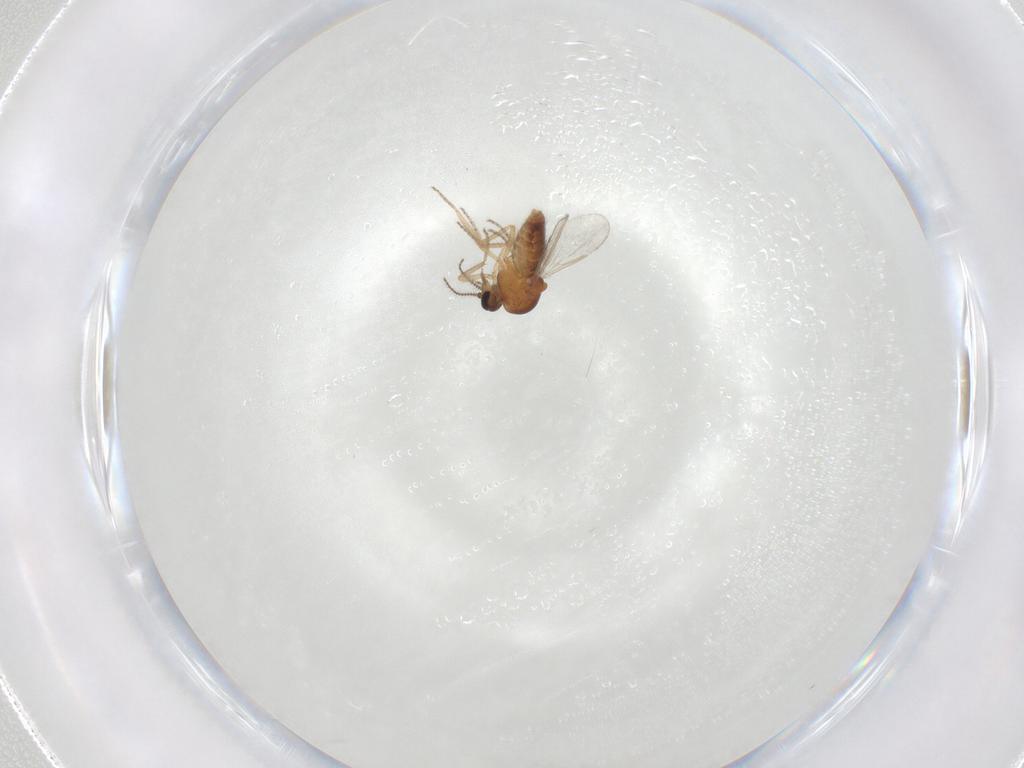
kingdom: Animalia
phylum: Arthropoda
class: Insecta
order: Diptera
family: Ceratopogonidae
